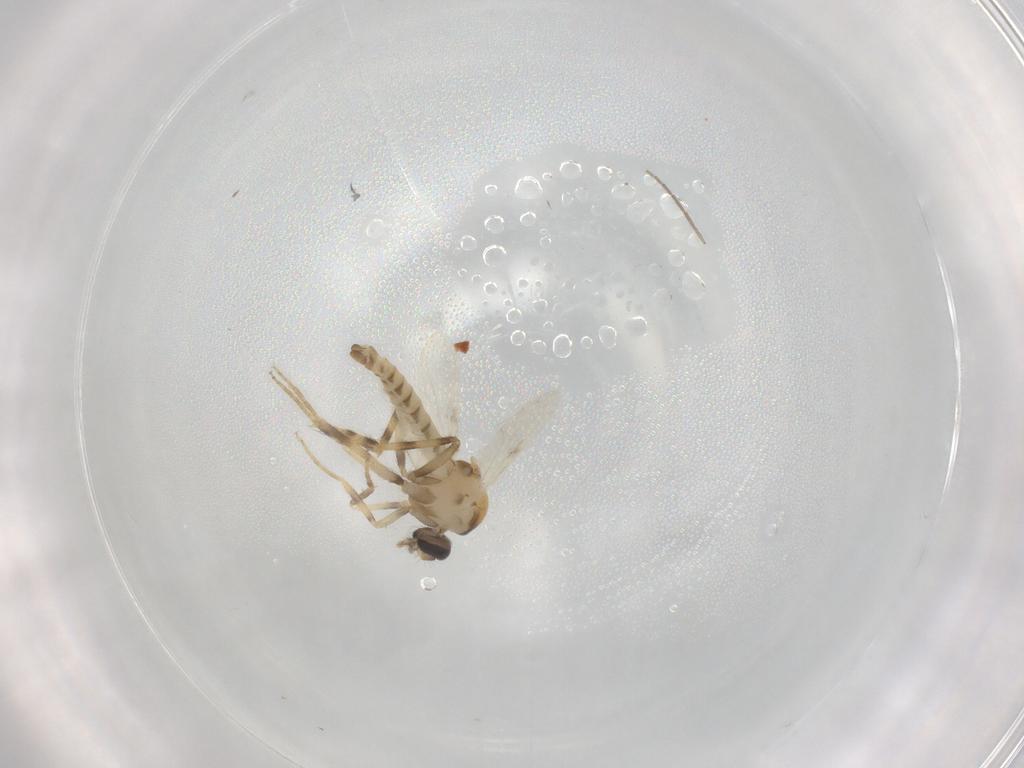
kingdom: Animalia
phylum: Arthropoda
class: Insecta
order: Diptera
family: Ceratopogonidae
